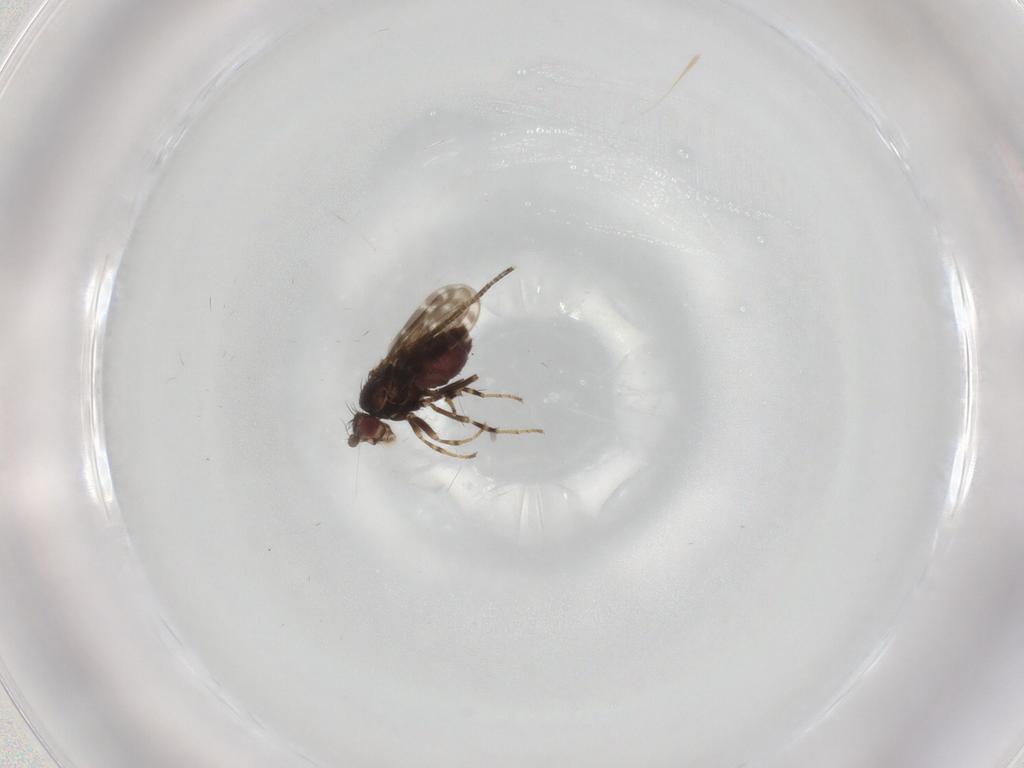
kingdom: Animalia
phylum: Arthropoda
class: Insecta
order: Diptera
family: Sphaeroceridae
